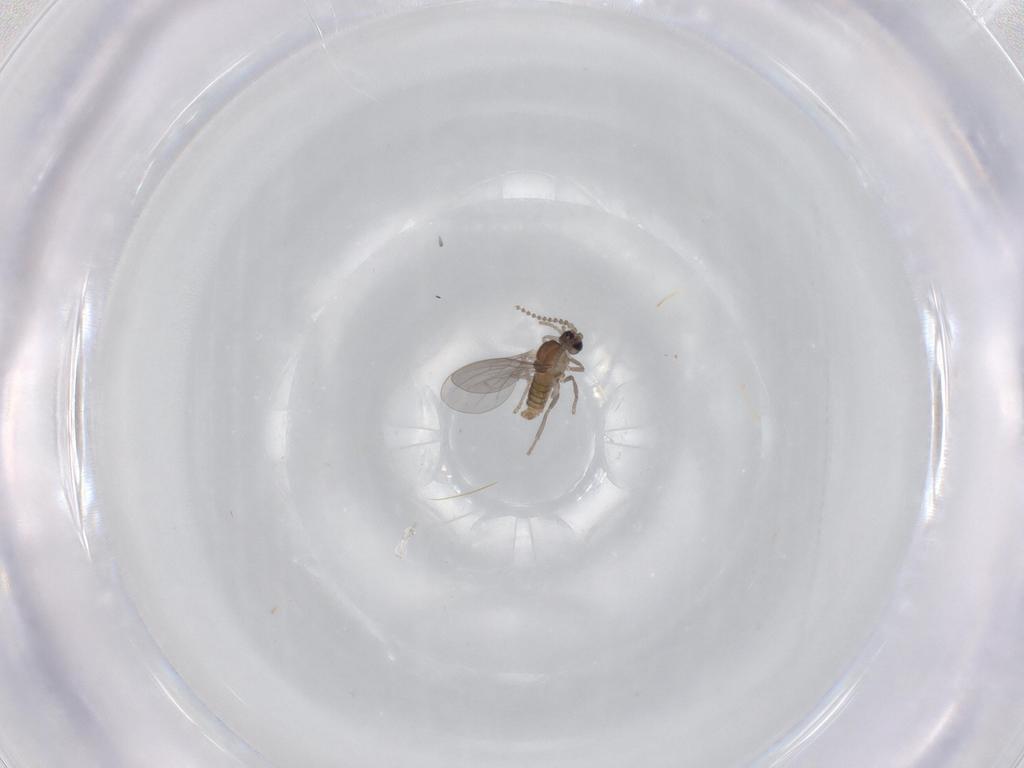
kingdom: Animalia
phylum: Arthropoda
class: Insecta
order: Diptera
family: Cecidomyiidae
